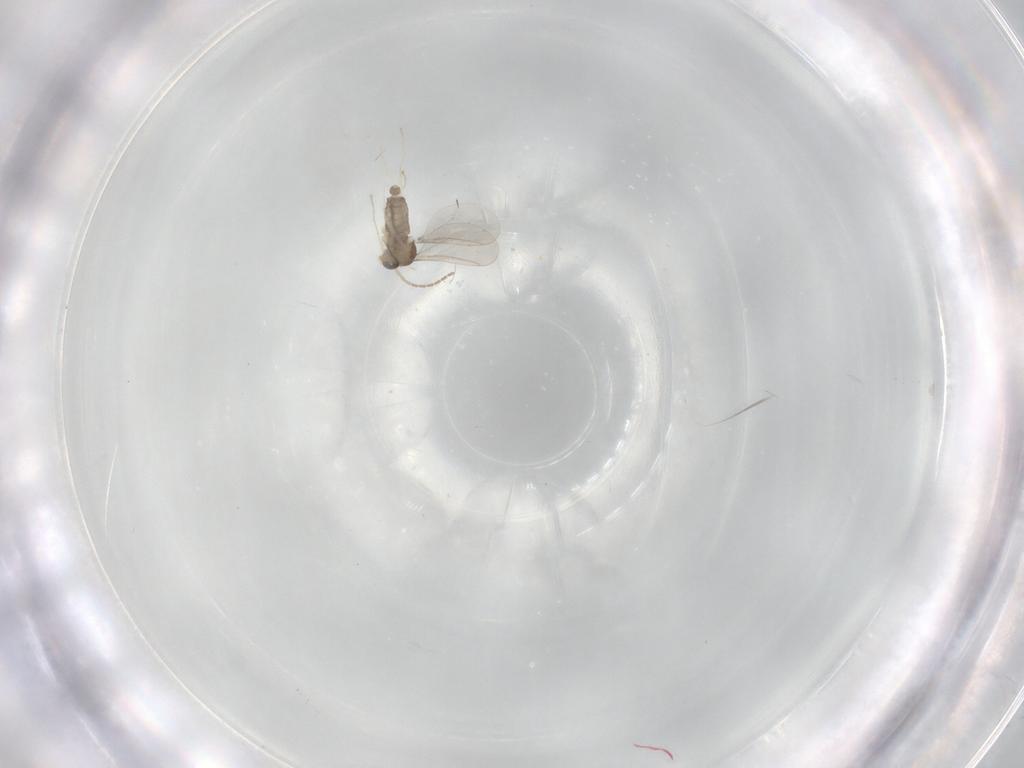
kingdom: Animalia
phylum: Arthropoda
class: Insecta
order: Diptera
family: Cecidomyiidae
